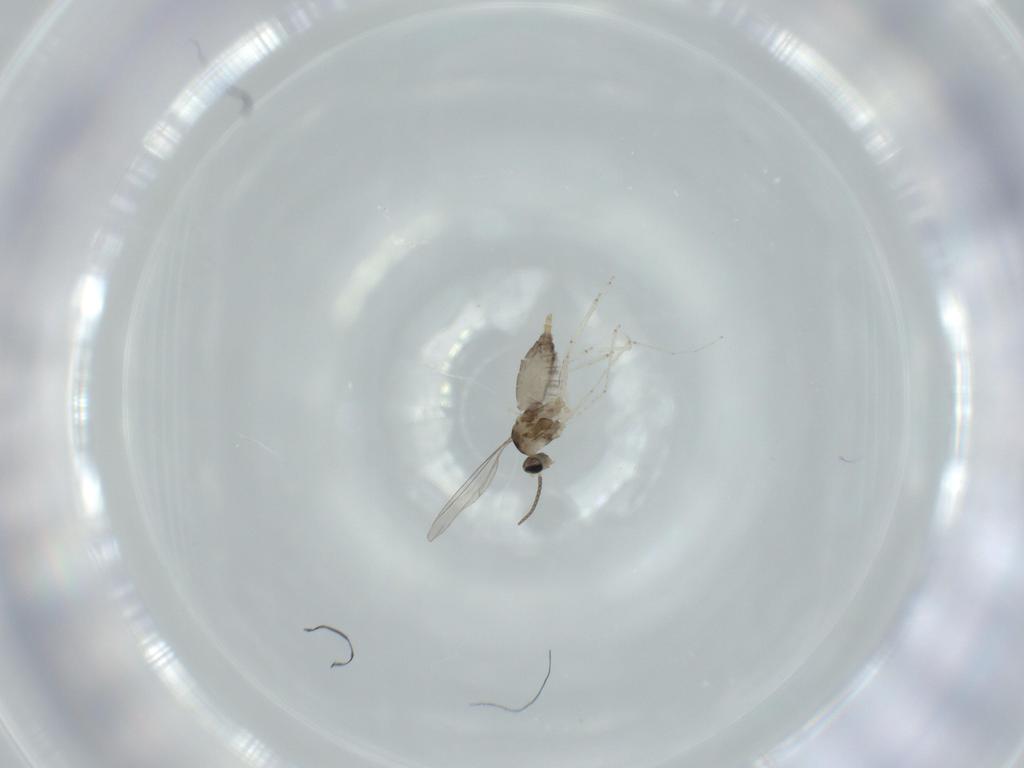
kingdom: Animalia
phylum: Arthropoda
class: Insecta
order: Diptera
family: Cecidomyiidae
